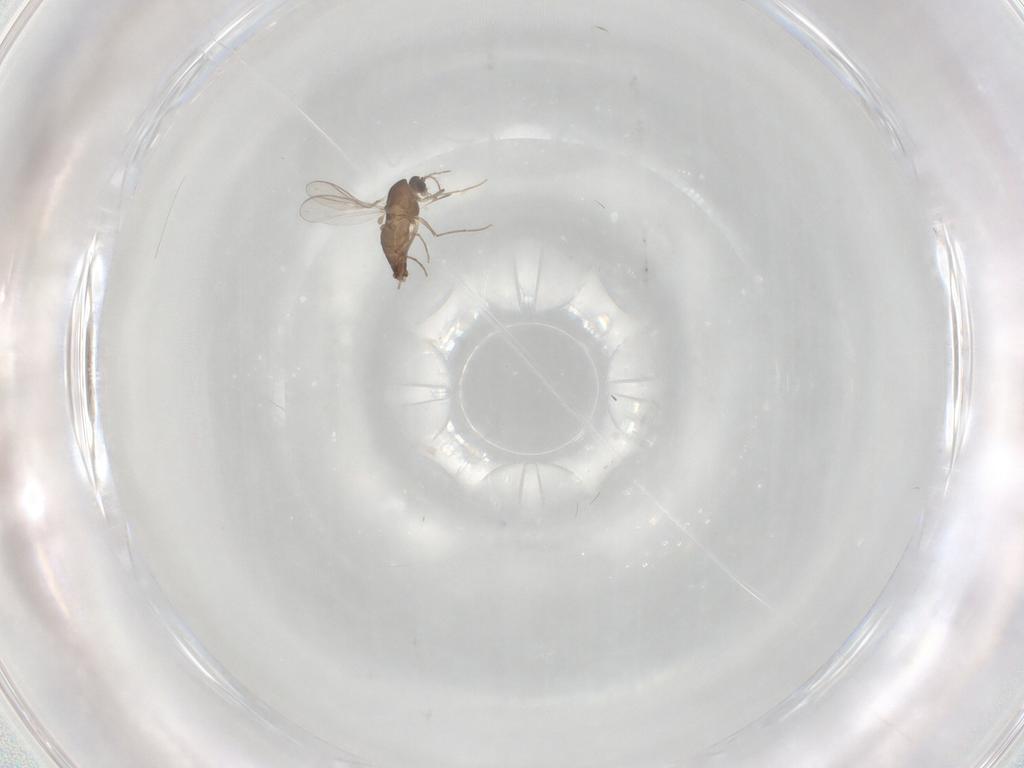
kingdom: Animalia
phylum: Arthropoda
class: Insecta
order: Diptera
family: Chironomidae
